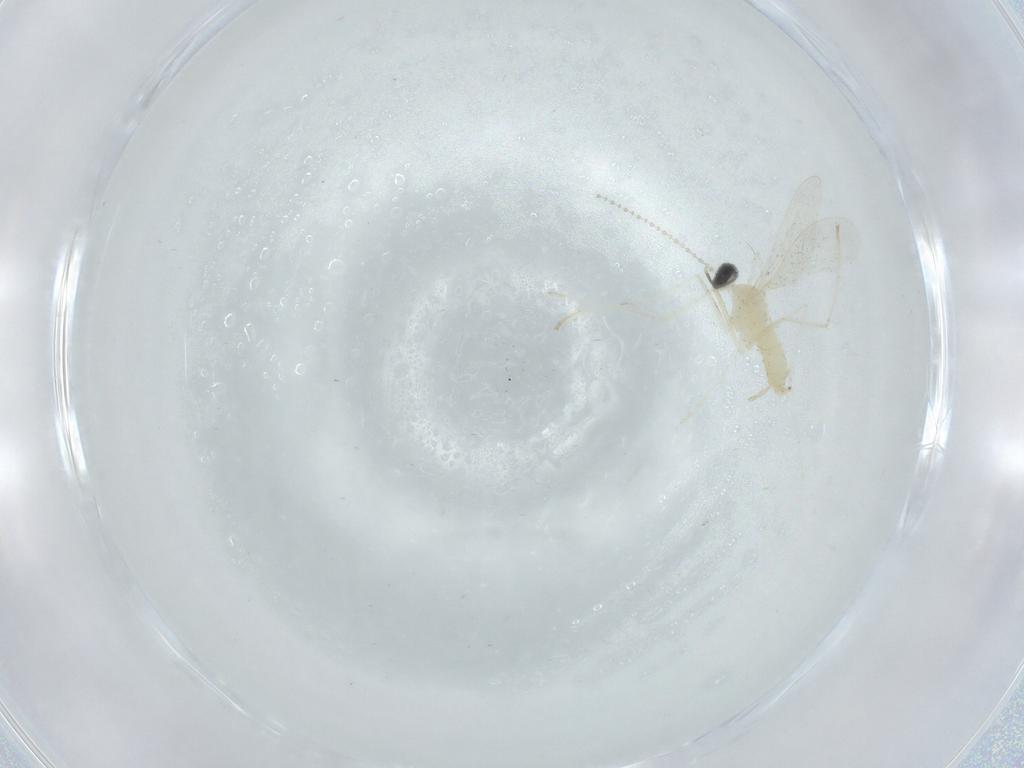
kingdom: Animalia
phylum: Arthropoda
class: Insecta
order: Diptera
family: Cecidomyiidae
